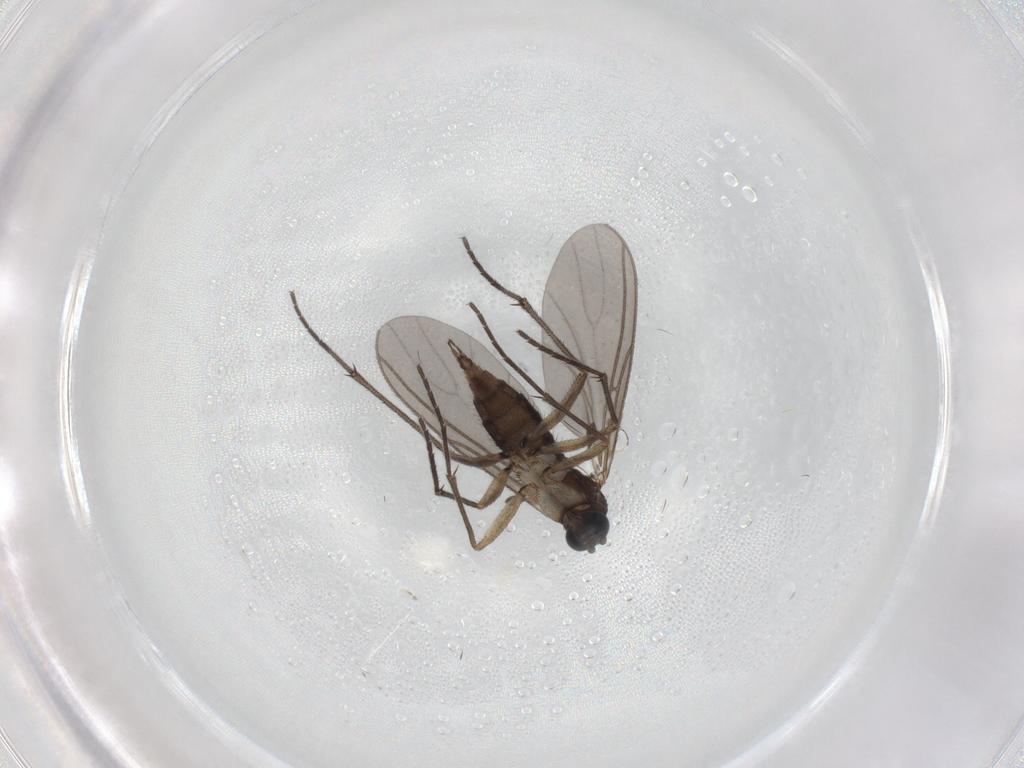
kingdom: Animalia
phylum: Arthropoda
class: Insecta
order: Diptera
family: Sciaridae
